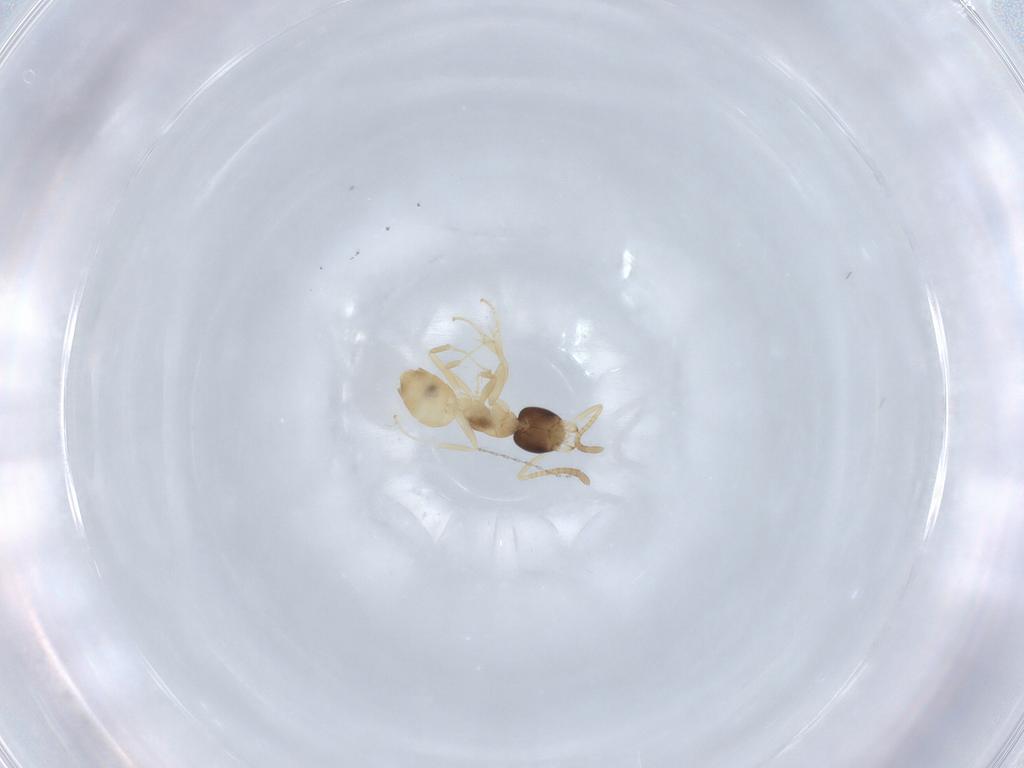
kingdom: Animalia
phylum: Arthropoda
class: Insecta
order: Hymenoptera
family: Formicidae
